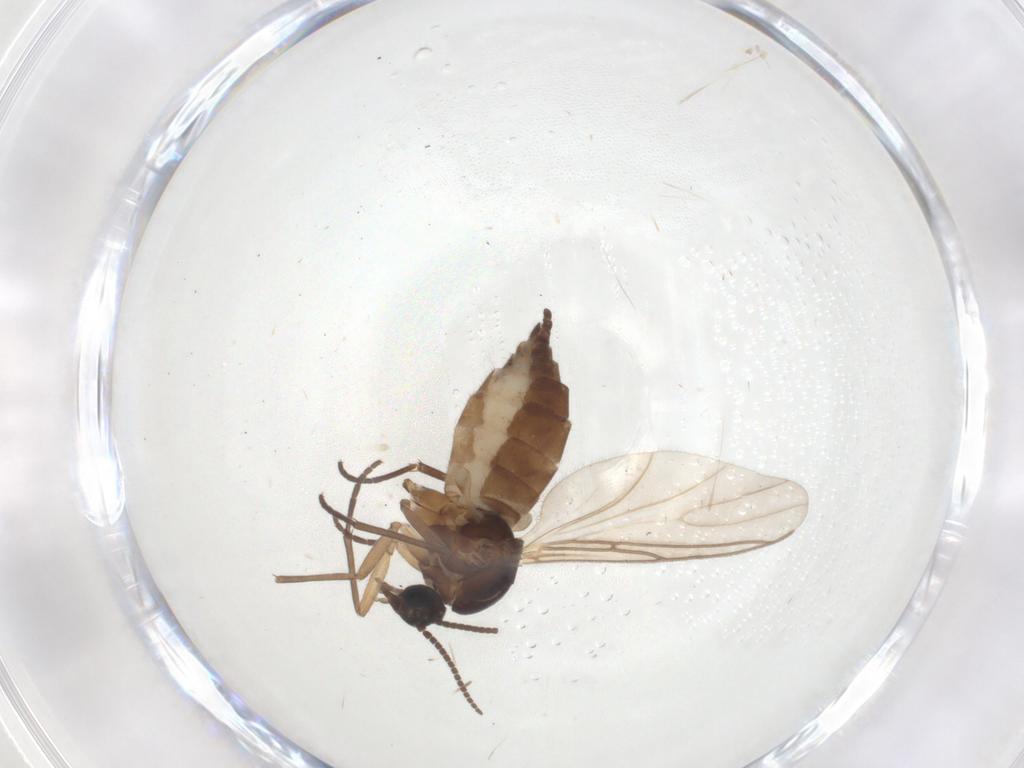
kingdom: Animalia
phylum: Arthropoda
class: Insecta
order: Diptera
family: Sciaridae
